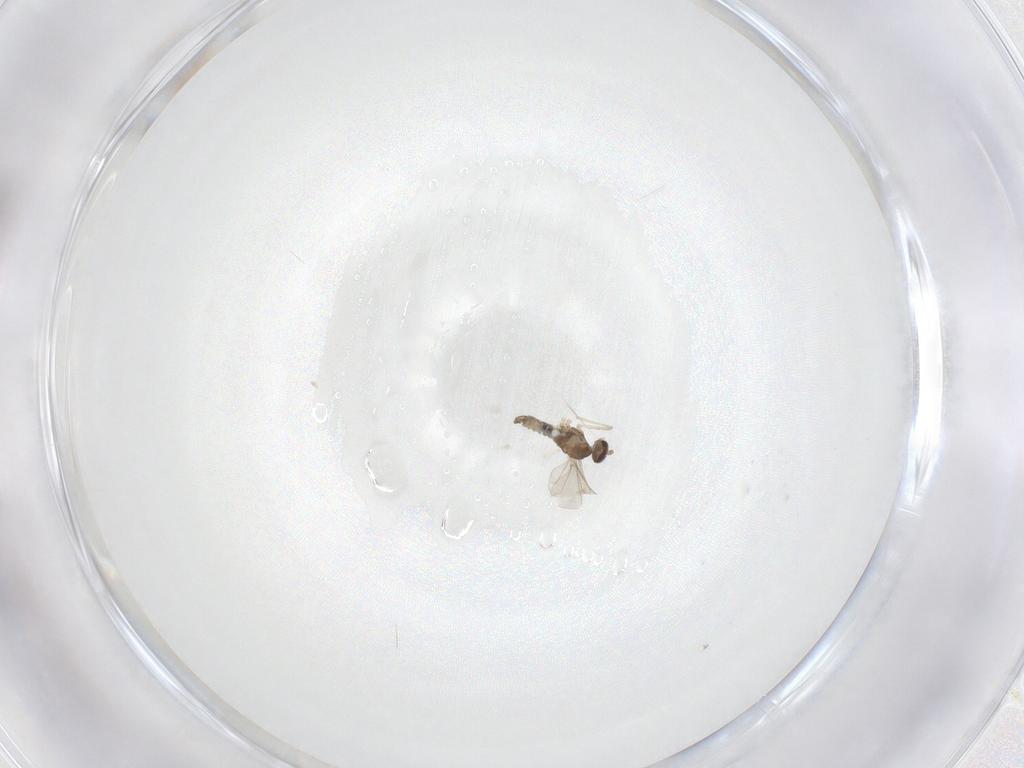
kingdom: Animalia
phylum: Arthropoda
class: Insecta
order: Diptera
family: Cecidomyiidae
